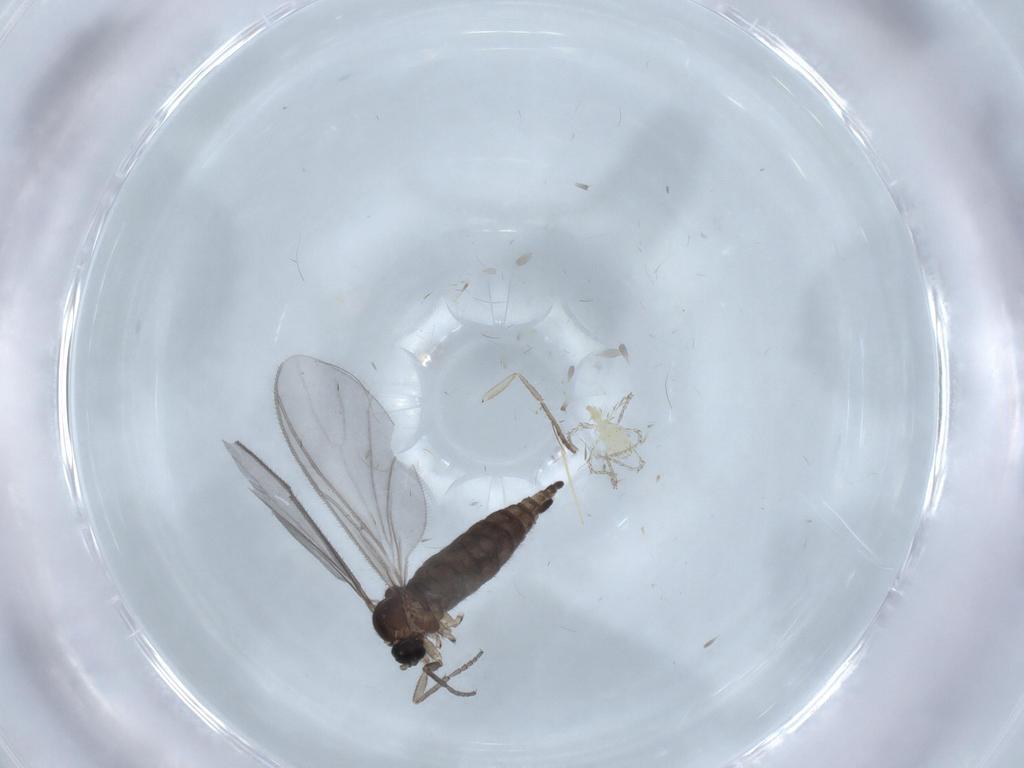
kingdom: Animalia
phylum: Arthropoda
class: Insecta
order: Diptera
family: Sciaridae
